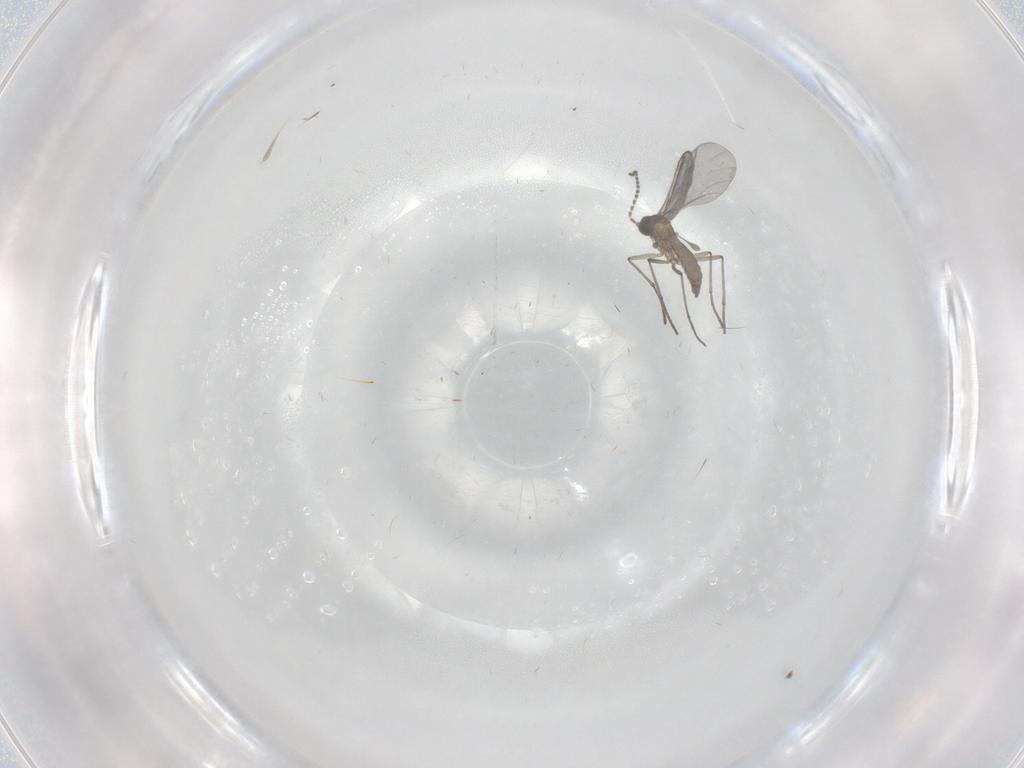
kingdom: Animalia
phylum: Arthropoda
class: Insecta
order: Diptera
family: Sciaridae
